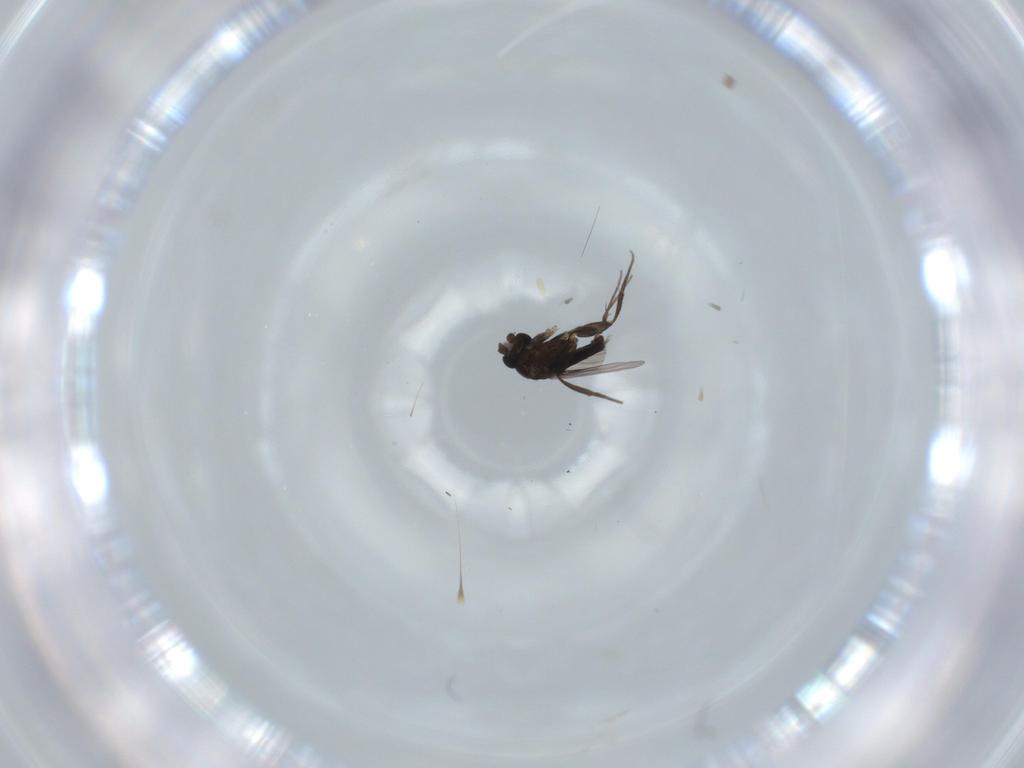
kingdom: Animalia
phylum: Arthropoda
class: Insecta
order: Diptera
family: Phoridae
